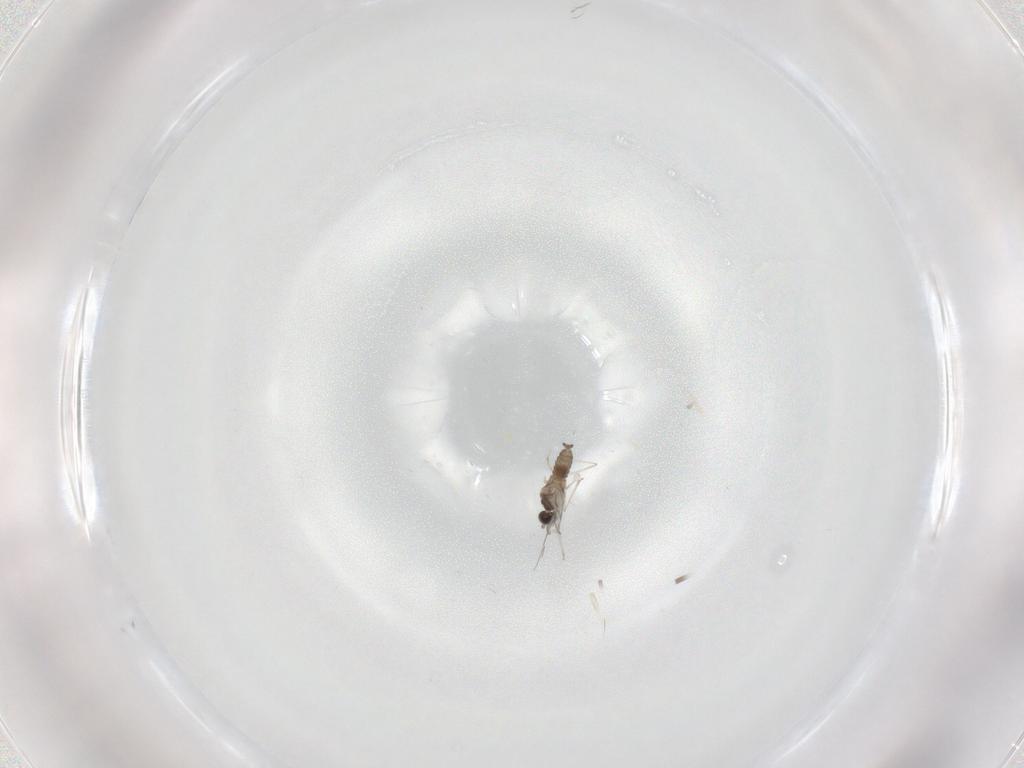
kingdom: Animalia
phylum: Arthropoda
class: Insecta
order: Diptera
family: Cecidomyiidae
